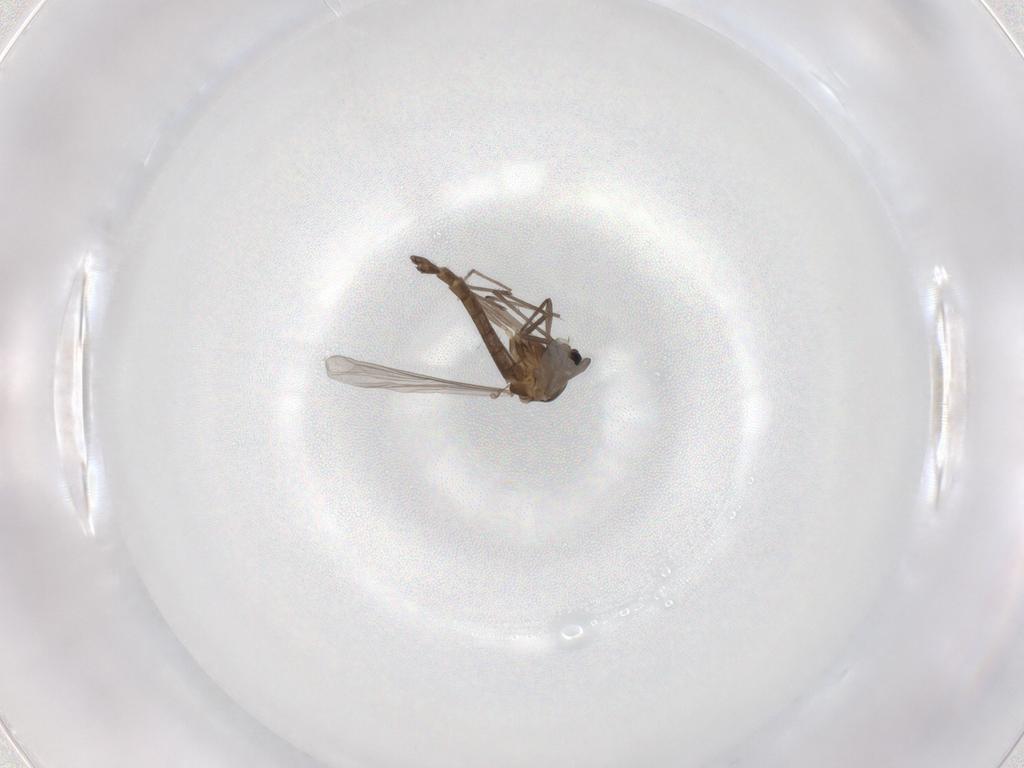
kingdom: Animalia
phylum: Arthropoda
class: Insecta
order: Diptera
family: Chironomidae
